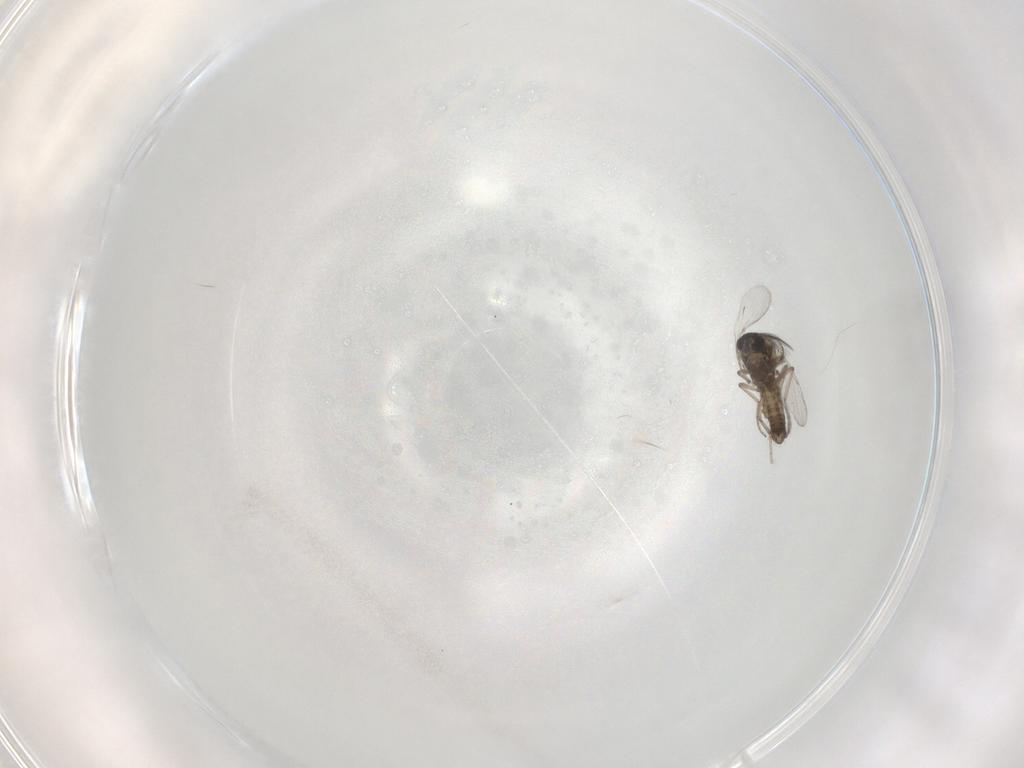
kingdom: Animalia
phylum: Arthropoda
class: Insecta
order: Diptera
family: Ceratopogonidae
